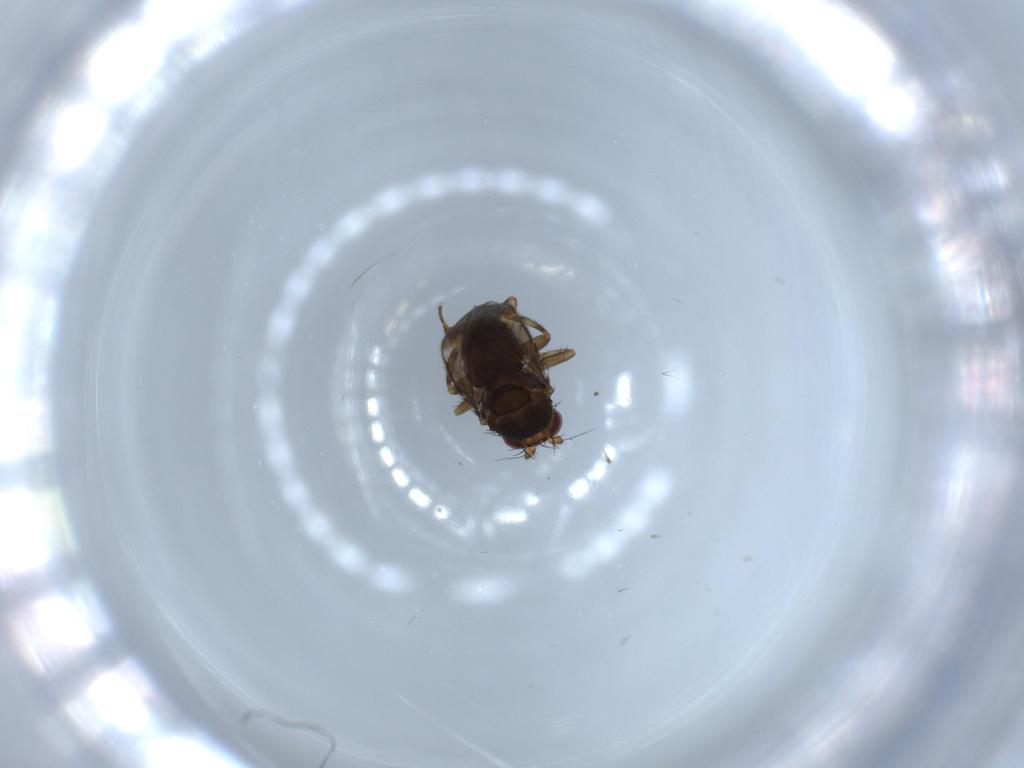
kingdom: Animalia
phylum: Arthropoda
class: Insecta
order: Diptera
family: Sphaeroceridae
